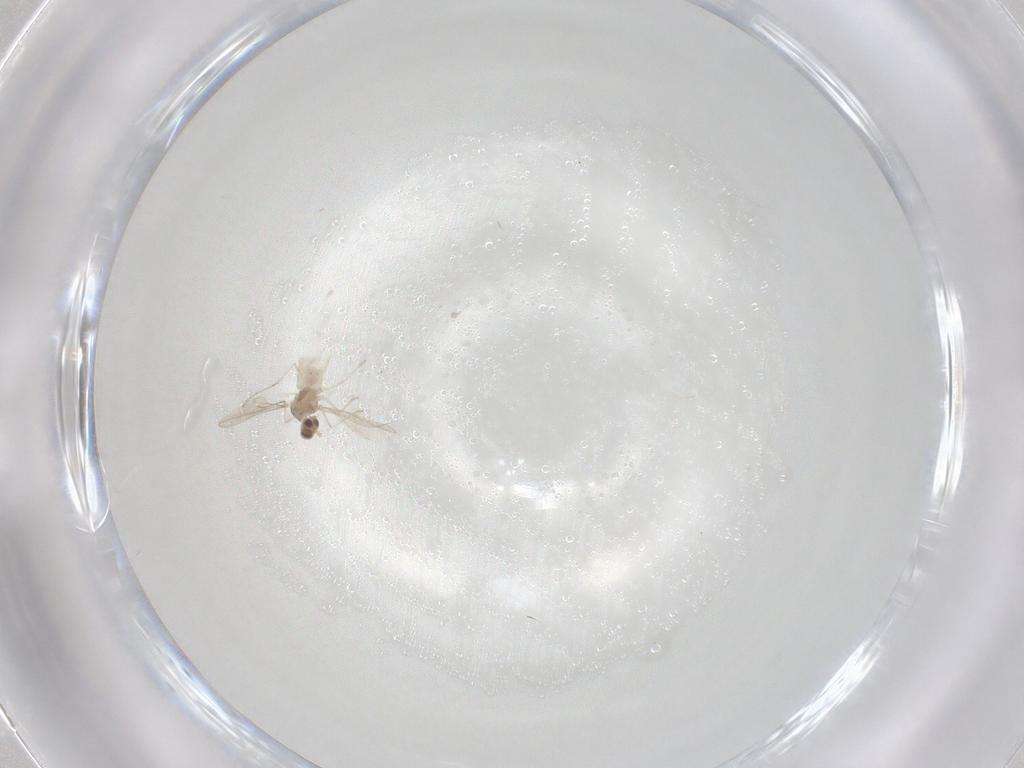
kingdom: Animalia
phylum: Arthropoda
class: Insecta
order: Diptera
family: Cecidomyiidae
